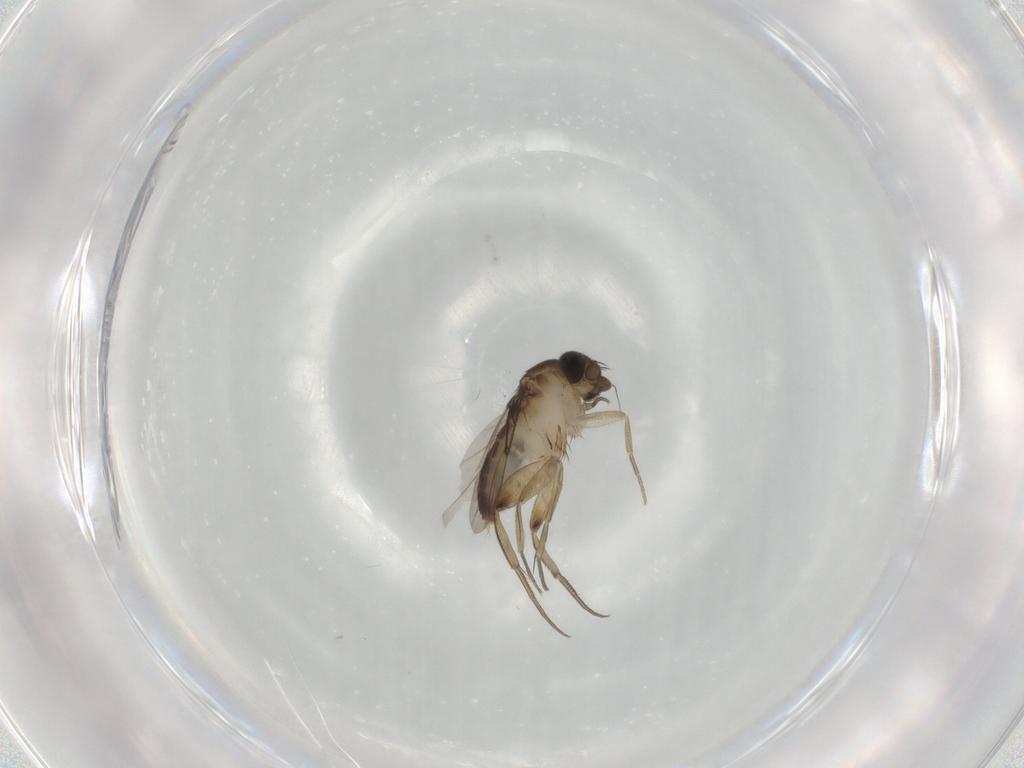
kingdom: Animalia
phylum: Arthropoda
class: Insecta
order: Diptera
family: Phoridae
